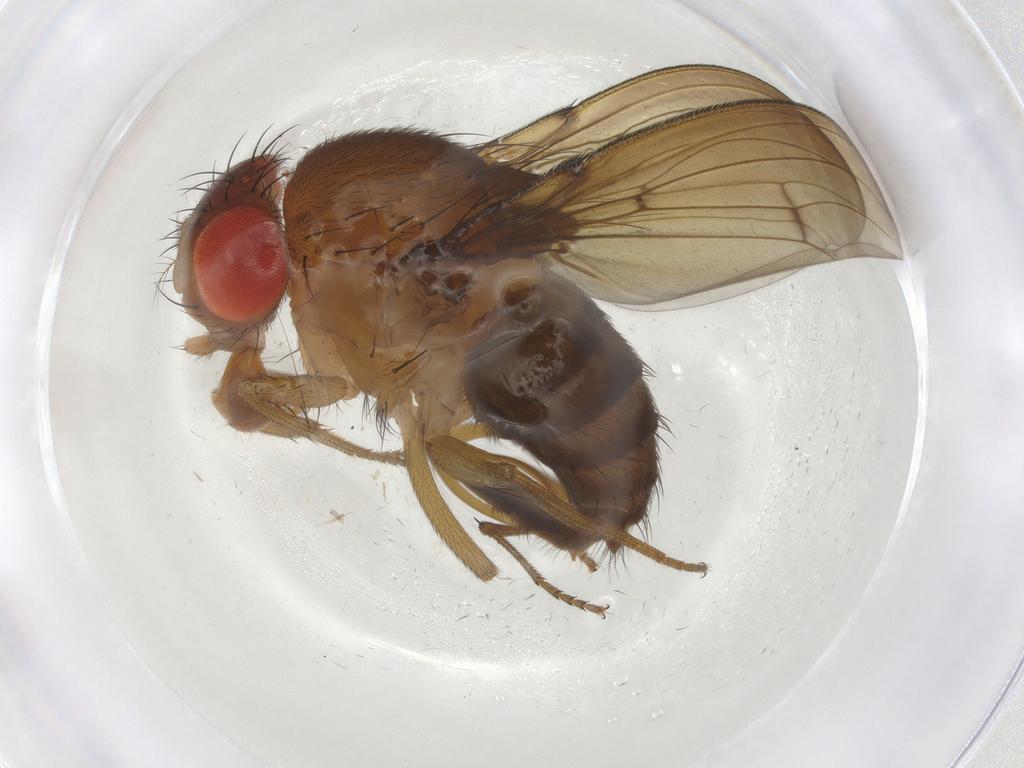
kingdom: Animalia
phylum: Arthropoda
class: Insecta
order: Diptera
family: Drosophilidae
